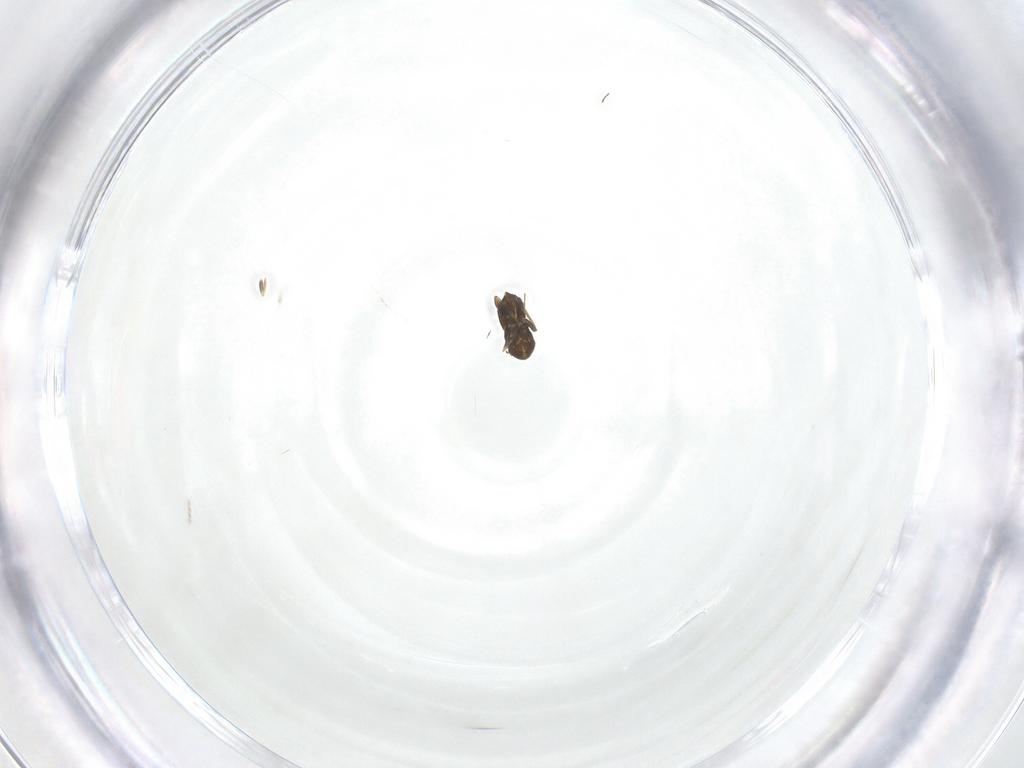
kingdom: Animalia
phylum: Arthropoda
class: Insecta
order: Hymenoptera
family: Trichogrammatidae
